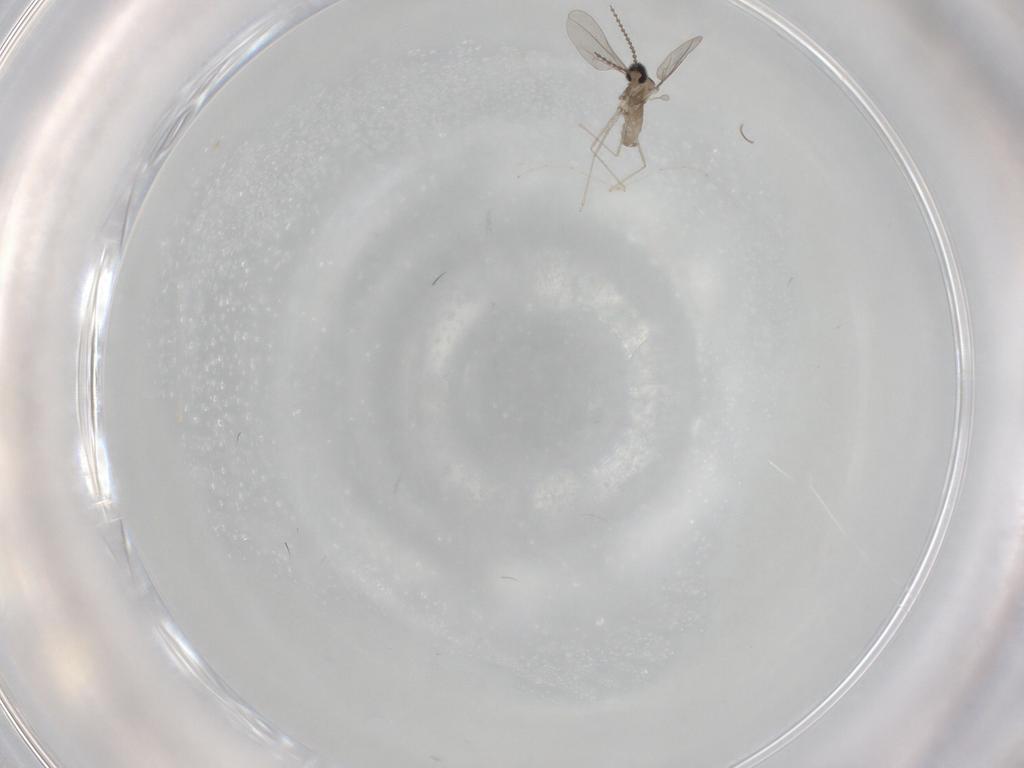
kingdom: Animalia
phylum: Arthropoda
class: Insecta
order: Diptera
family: Cecidomyiidae
